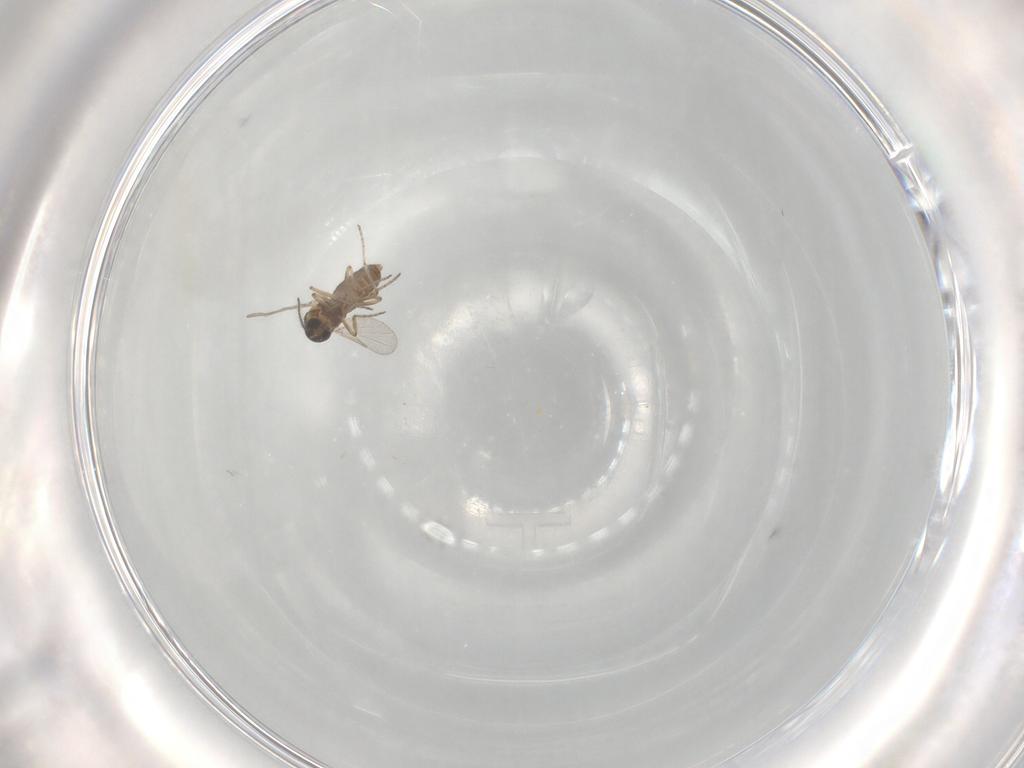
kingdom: Animalia
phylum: Arthropoda
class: Insecta
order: Diptera
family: Ceratopogonidae
